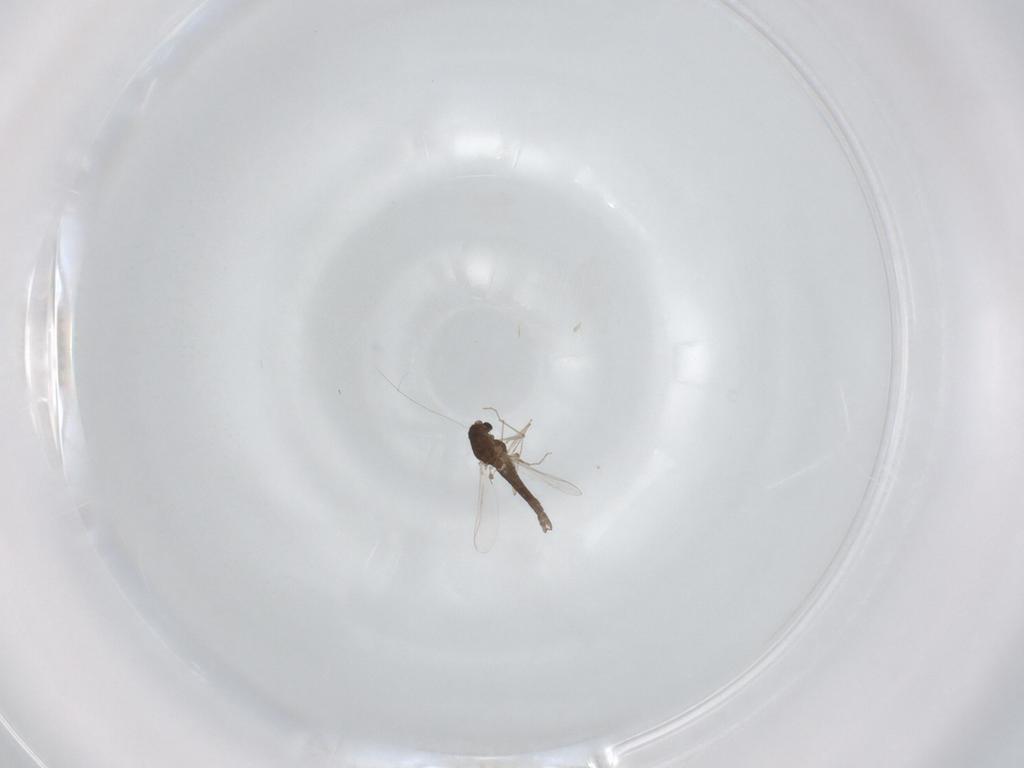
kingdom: Animalia
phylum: Arthropoda
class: Insecta
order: Diptera
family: Chironomidae
